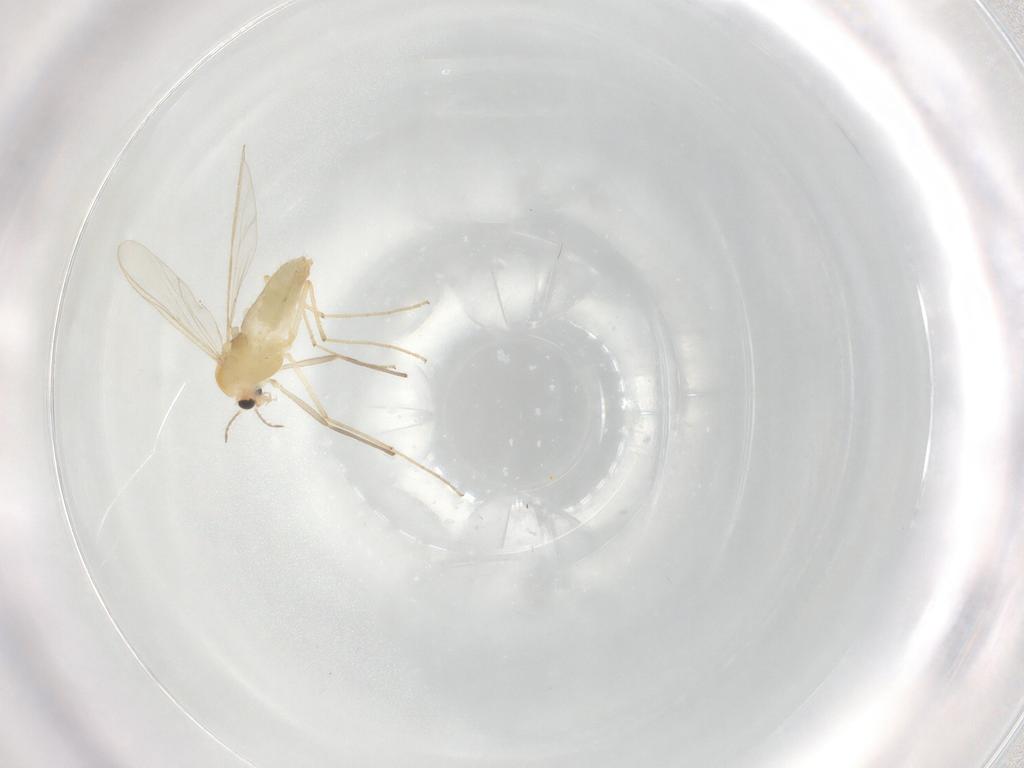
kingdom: Animalia
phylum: Arthropoda
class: Insecta
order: Diptera
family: Chironomidae
